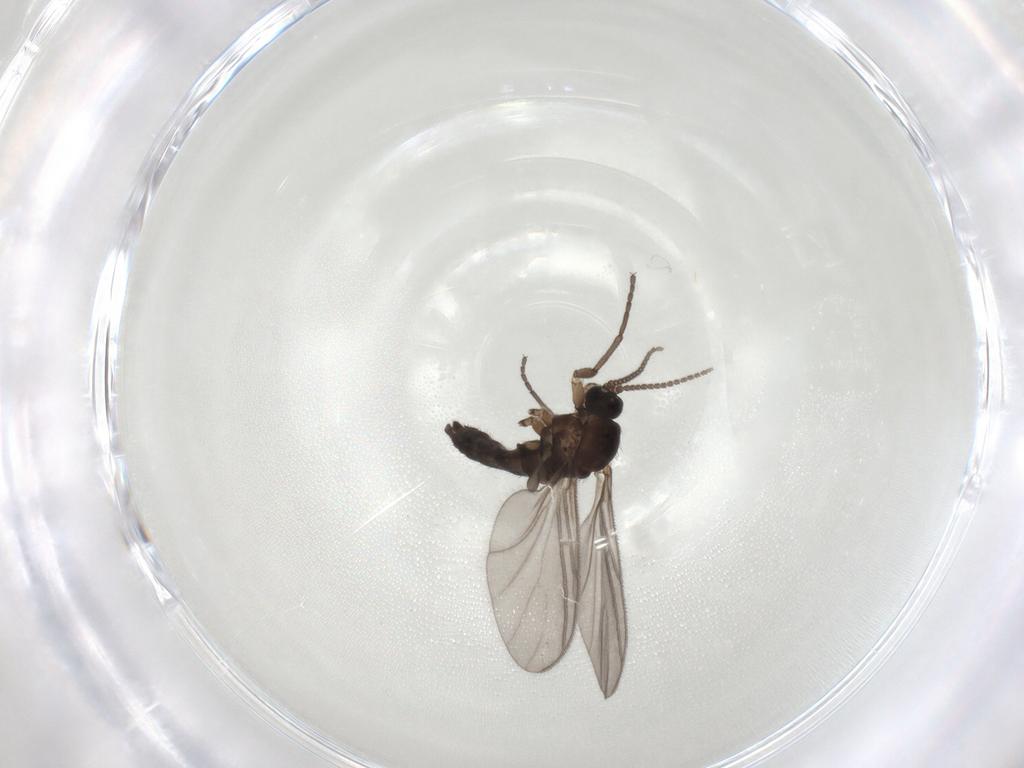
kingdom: Animalia
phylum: Arthropoda
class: Insecta
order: Diptera
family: Sciaridae
